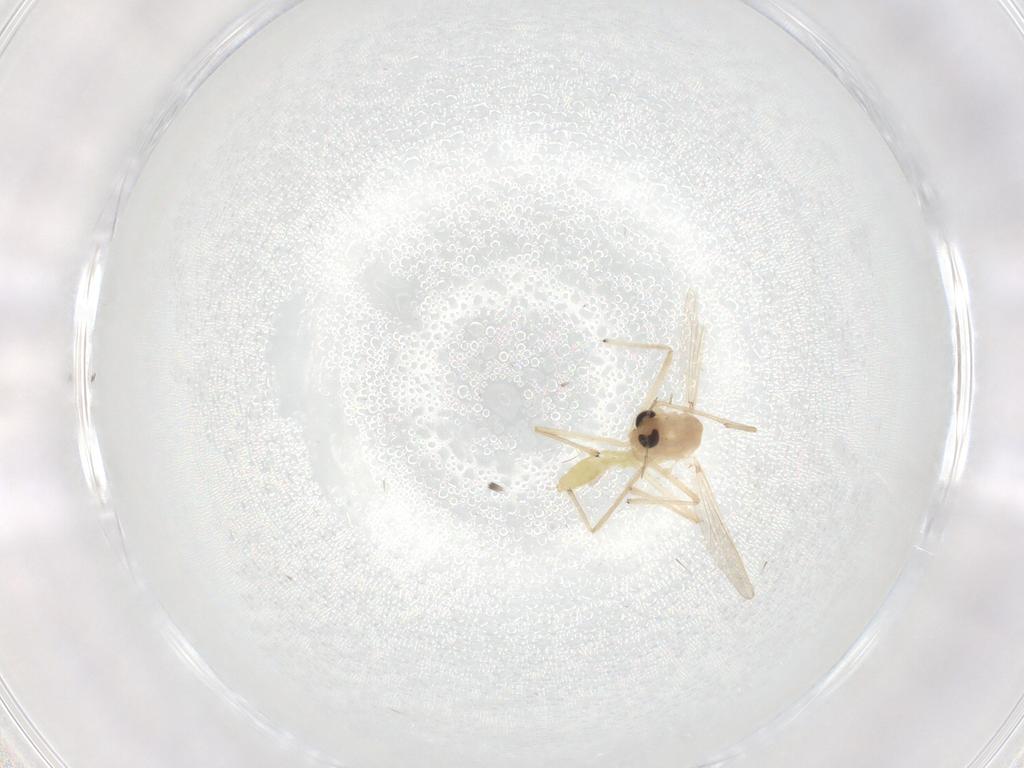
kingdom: Animalia
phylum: Arthropoda
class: Insecta
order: Diptera
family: Chironomidae
